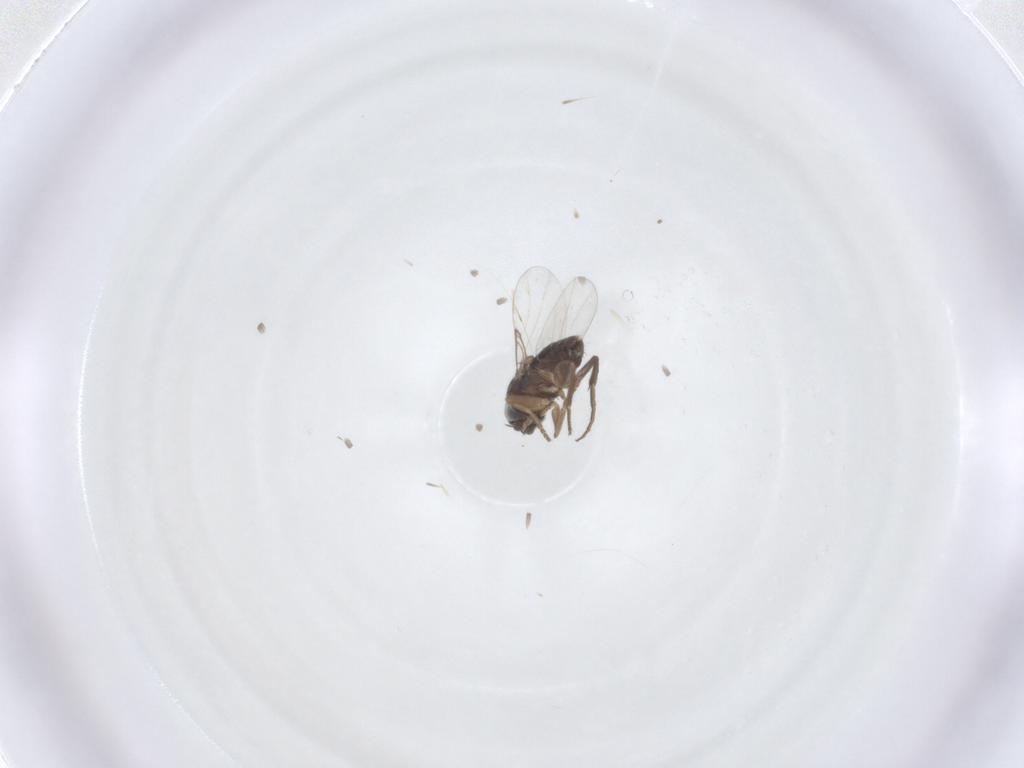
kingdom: Animalia
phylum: Arthropoda
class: Insecta
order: Diptera
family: Phoridae
